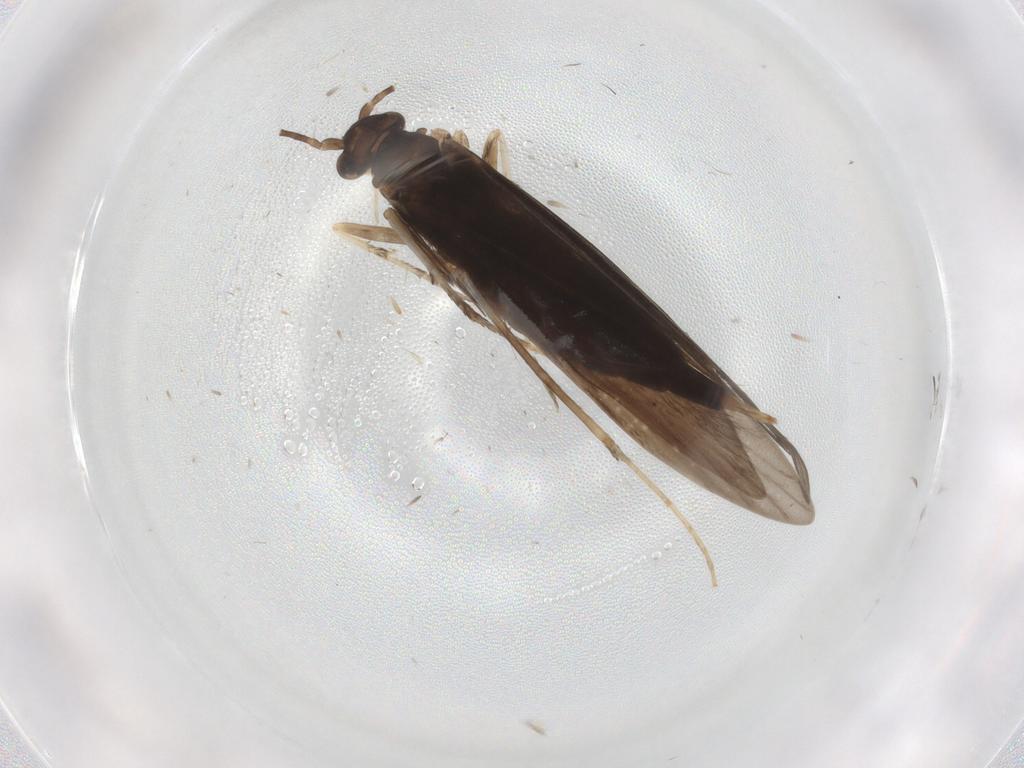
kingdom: Animalia
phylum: Arthropoda
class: Insecta
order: Trichoptera
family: Xiphocentronidae
